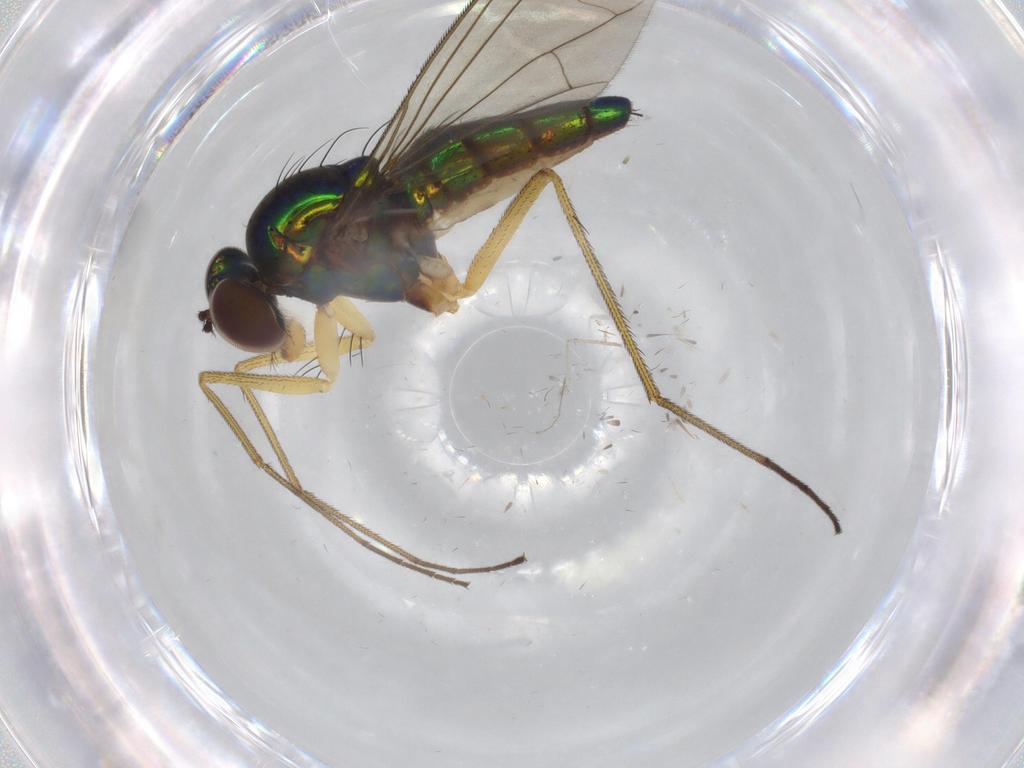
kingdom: Animalia
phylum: Arthropoda
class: Insecta
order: Diptera
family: Dolichopodidae
